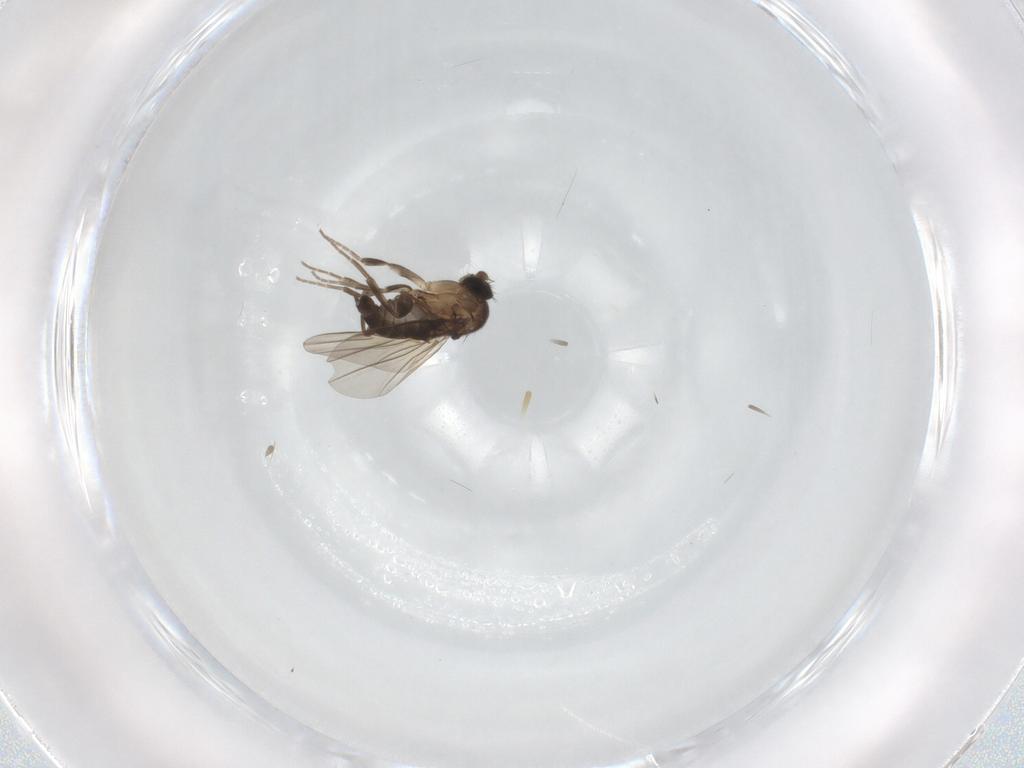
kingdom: Animalia
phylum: Arthropoda
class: Insecta
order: Diptera
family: Phoridae
